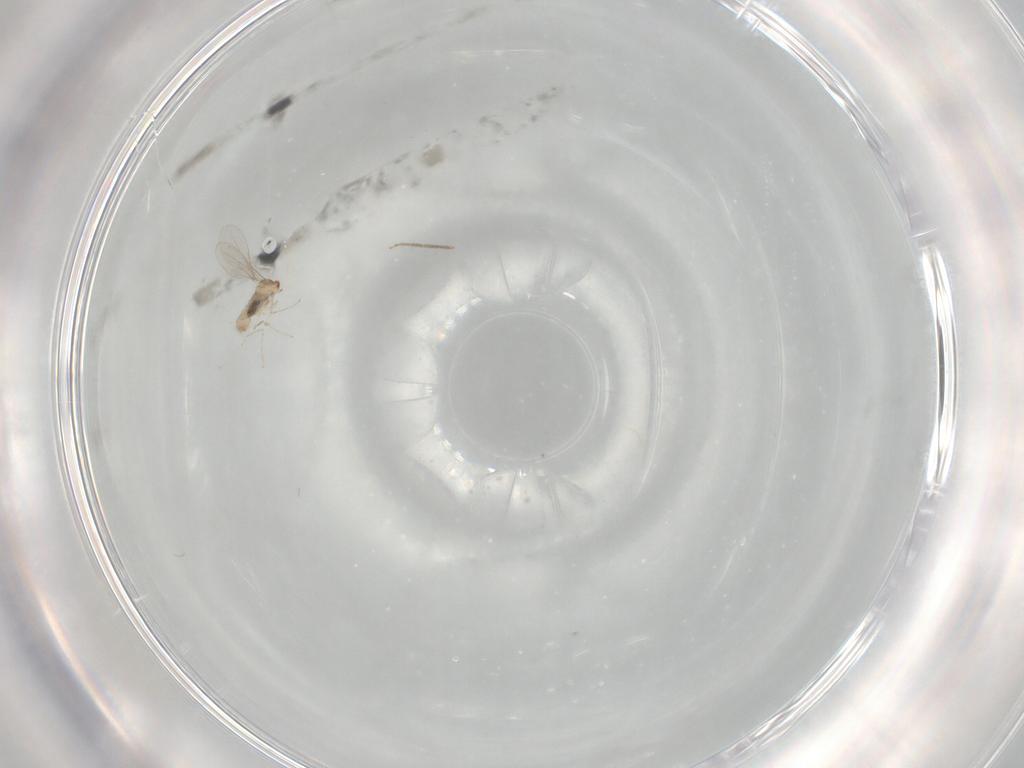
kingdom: Animalia
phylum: Arthropoda
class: Insecta
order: Diptera
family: Cecidomyiidae
